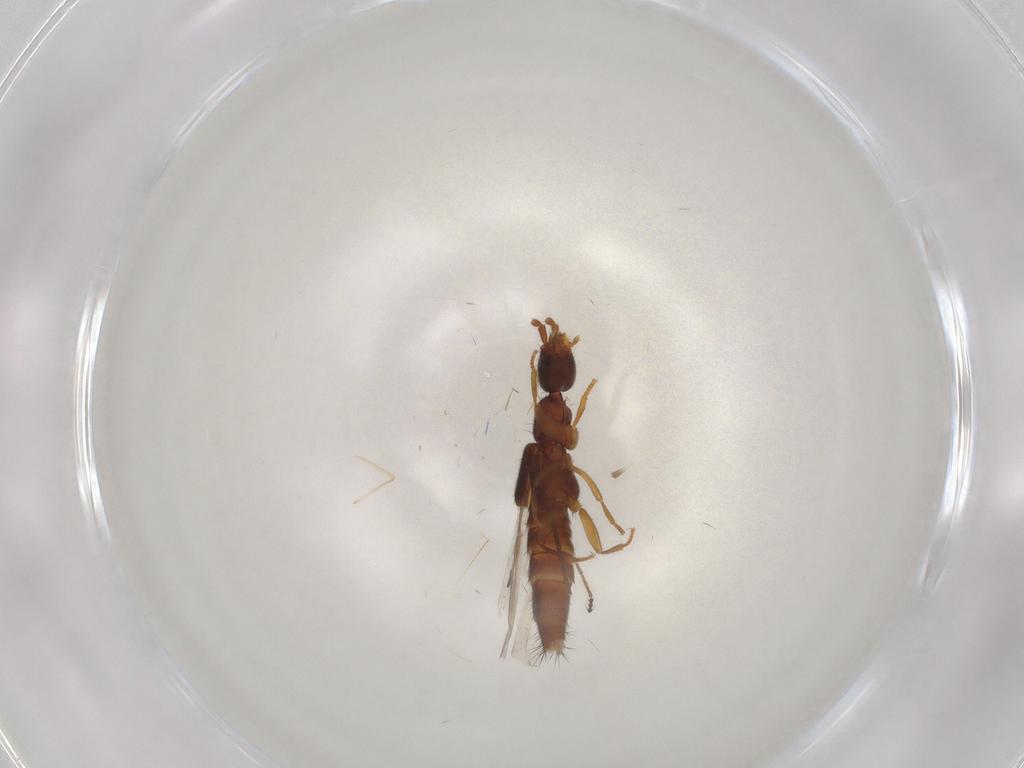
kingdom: Animalia
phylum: Arthropoda
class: Insecta
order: Coleoptera
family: Staphylinidae
